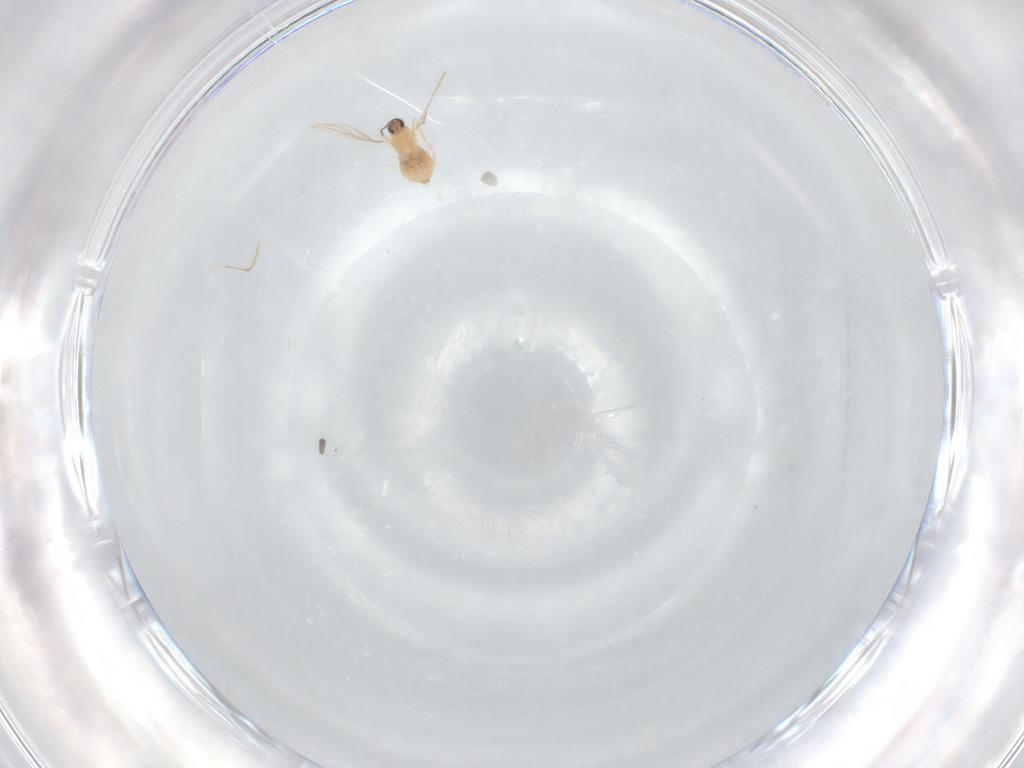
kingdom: Animalia
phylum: Arthropoda
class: Insecta
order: Diptera
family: Cecidomyiidae
